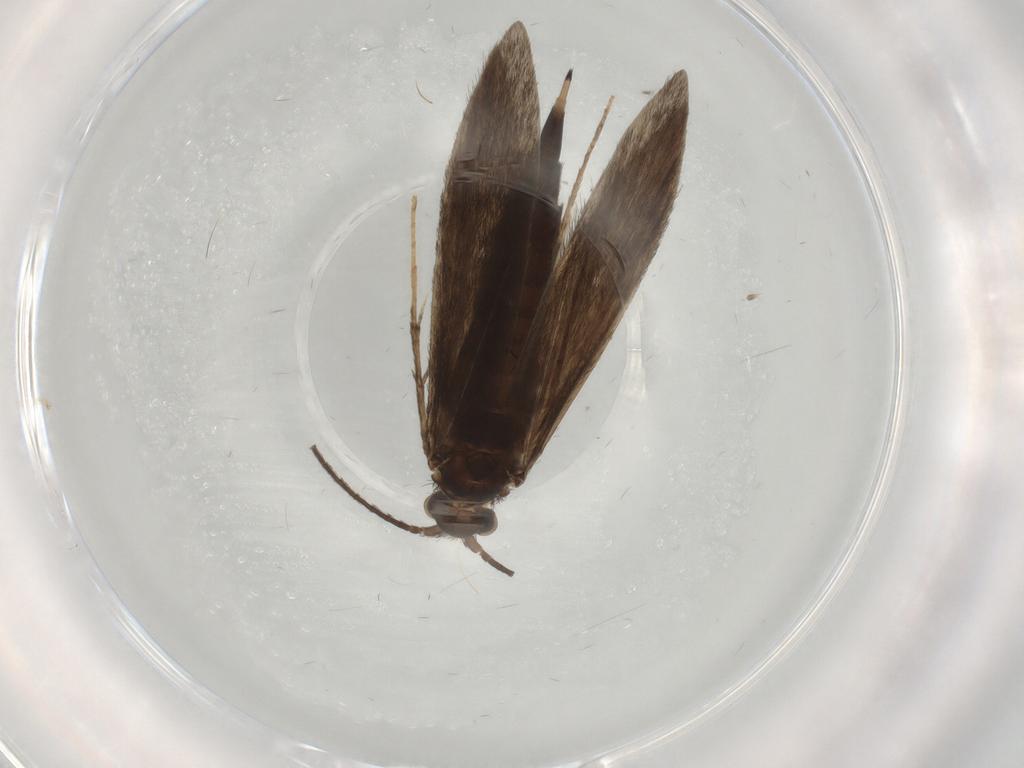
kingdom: Animalia
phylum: Arthropoda
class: Insecta
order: Trichoptera
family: Xiphocentronidae
